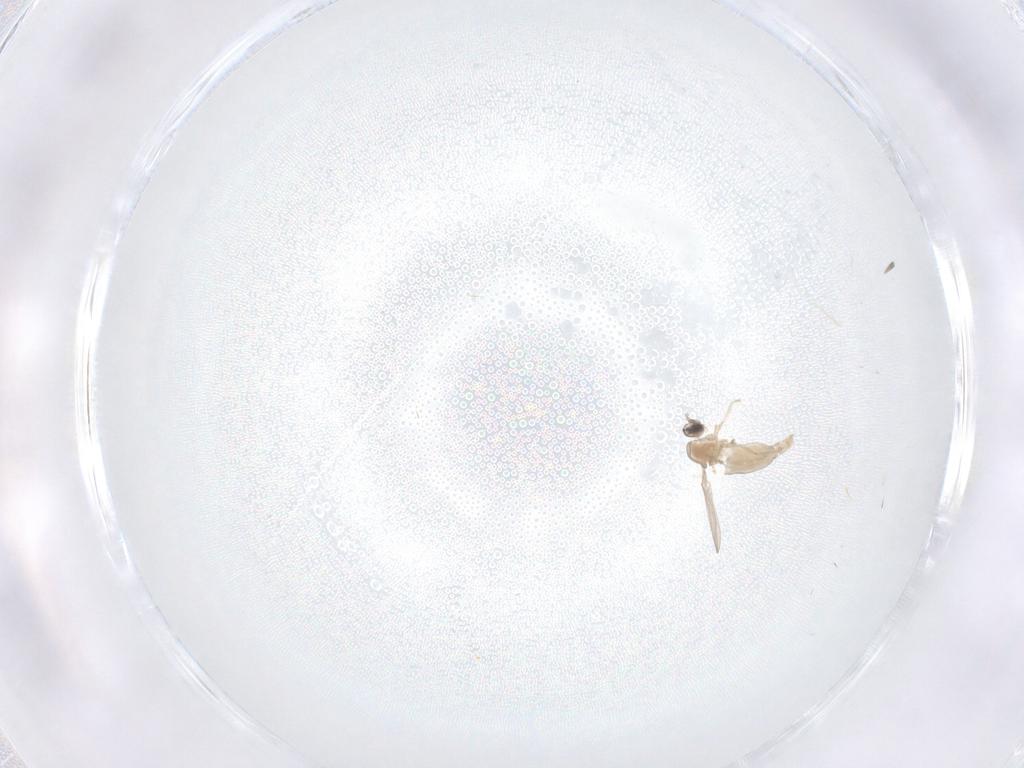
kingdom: Animalia
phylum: Arthropoda
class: Insecta
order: Diptera
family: Cecidomyiidae
